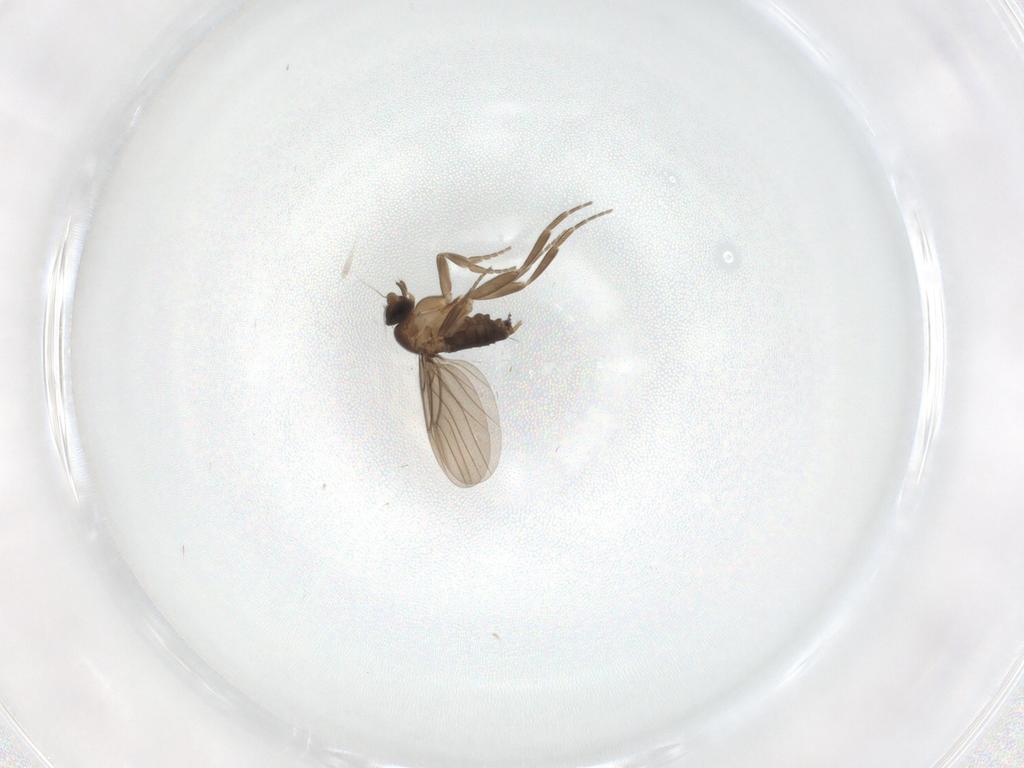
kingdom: Animalia
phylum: Arthropoda
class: Insecta
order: Diptera
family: Limoniidae
